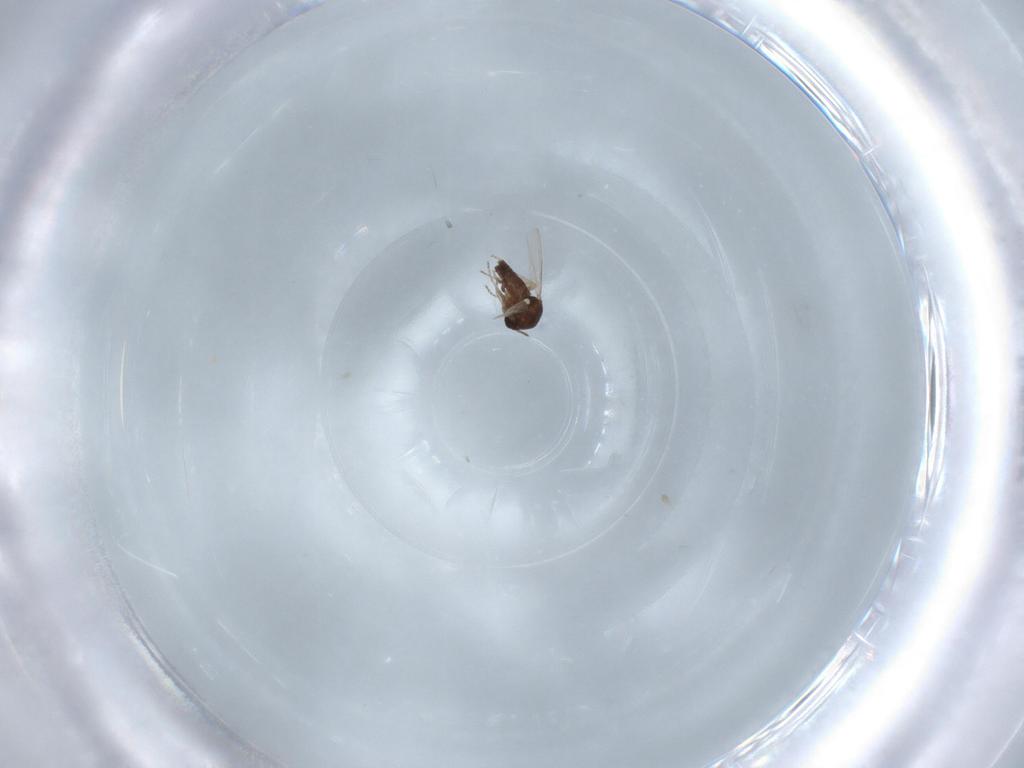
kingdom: Animalia
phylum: Arthropoda
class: Insecta
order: Diptera
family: Ceratopogonidae
